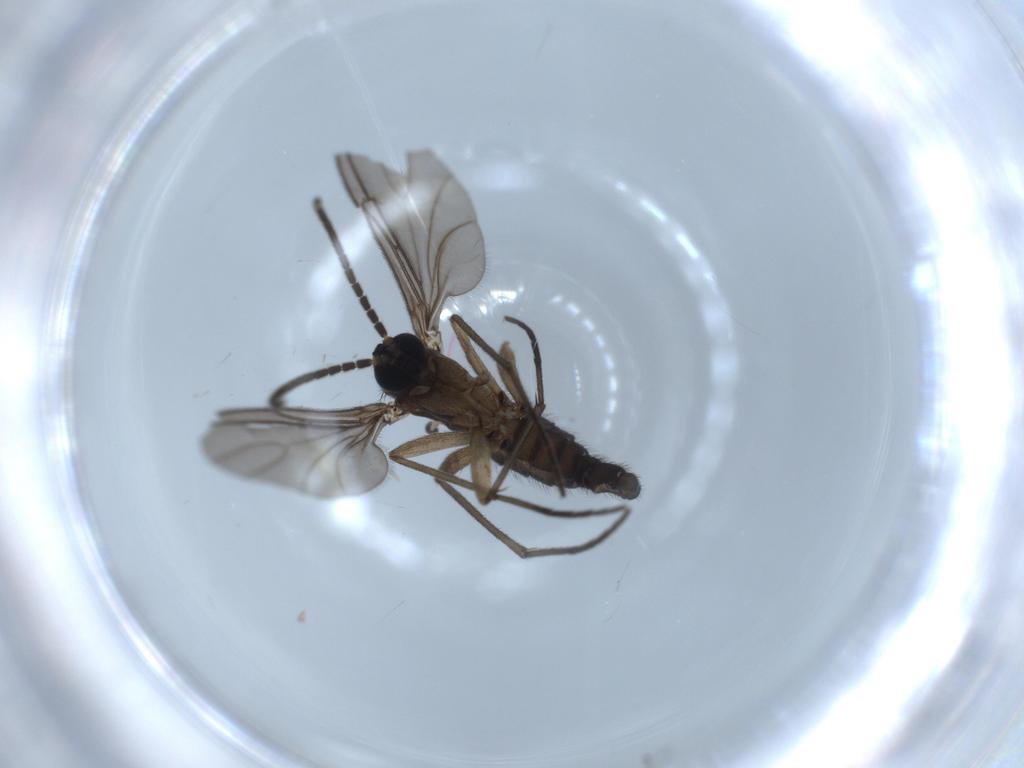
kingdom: Animalia
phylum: Arthropoda
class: Insecta
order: Diptera
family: Sciaridae
